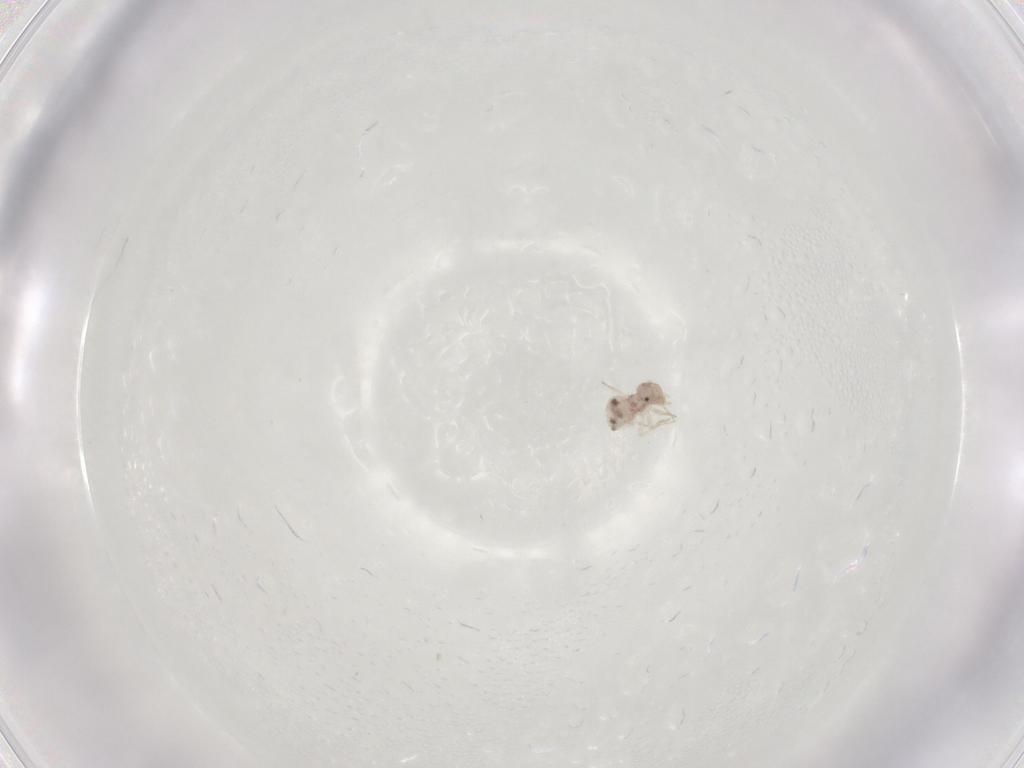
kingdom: Animalia
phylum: Arthropoda
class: Insecta
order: Psocodea
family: Lachesillidae
